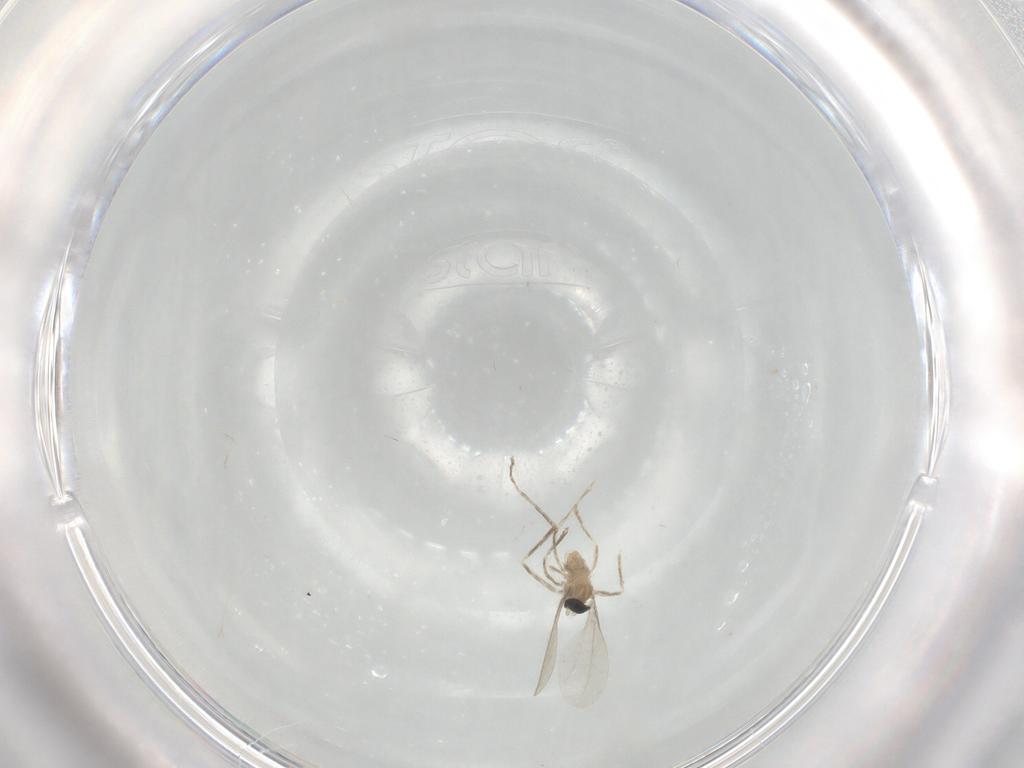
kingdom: Animalia
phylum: Arthropoda
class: Insecta
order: Diptera
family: Cecidomyiidae
